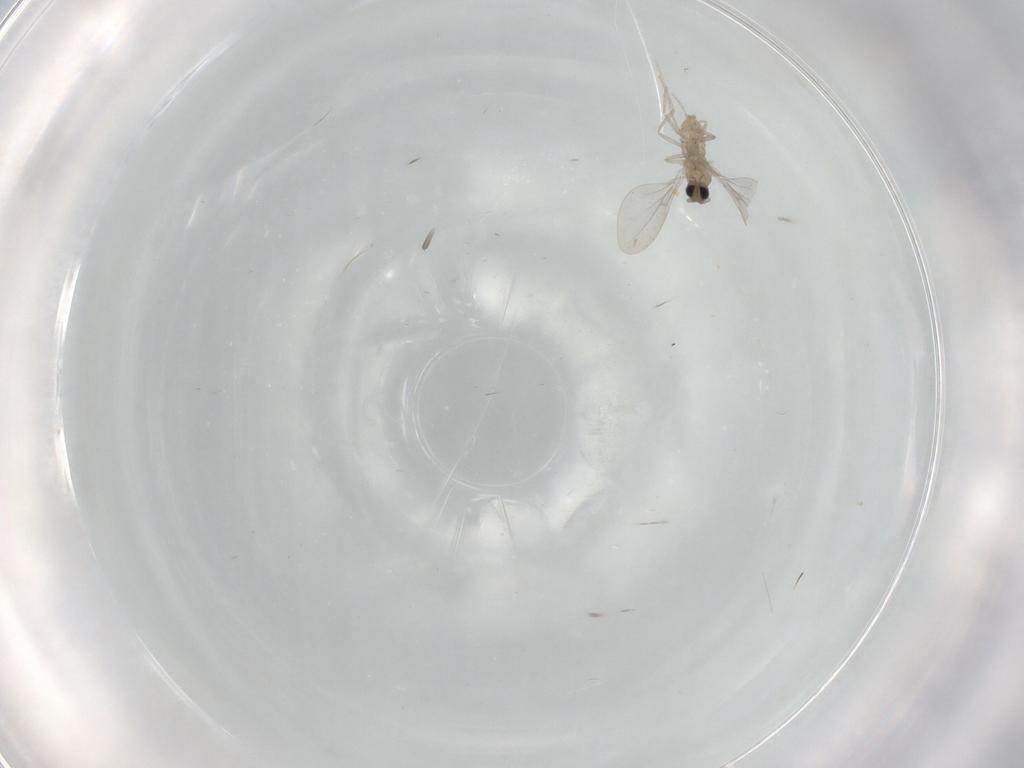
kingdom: Animalia
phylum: Arthropoda
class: Insecta
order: Diptera
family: Cecidomyiidae
